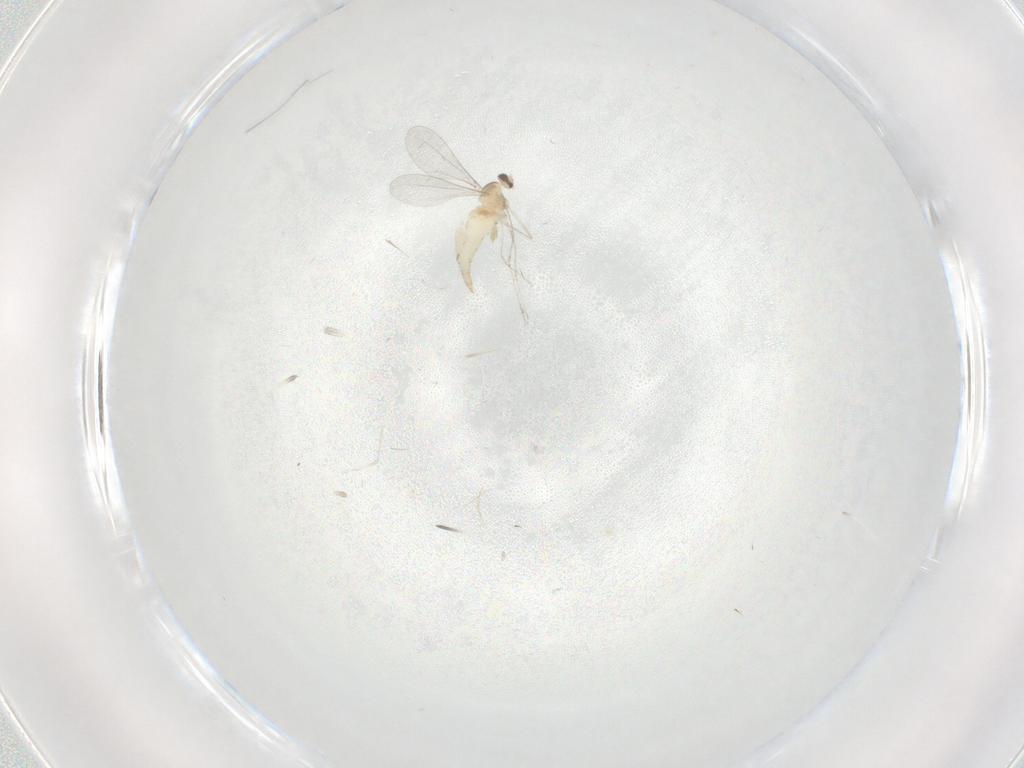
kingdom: Animalia
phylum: Arthropoda
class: Insecta
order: Diptera
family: Cecidomyiidae
